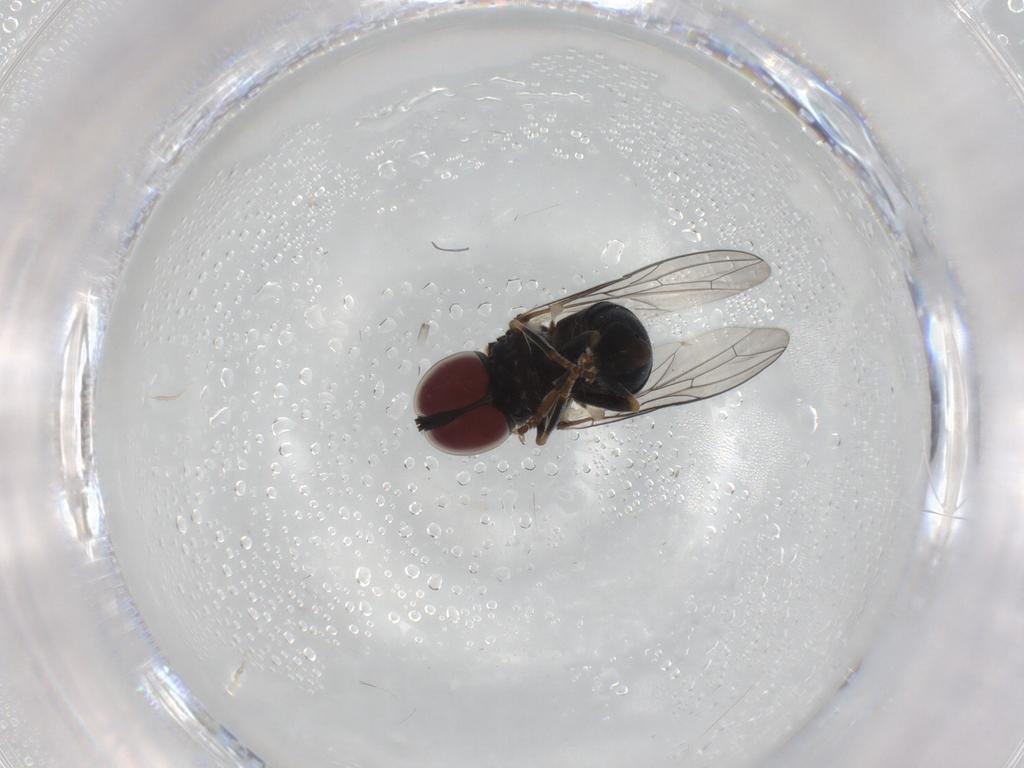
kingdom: Animalia
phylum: Arthropoda
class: Insecta
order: Diptera
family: Pipunculidae
